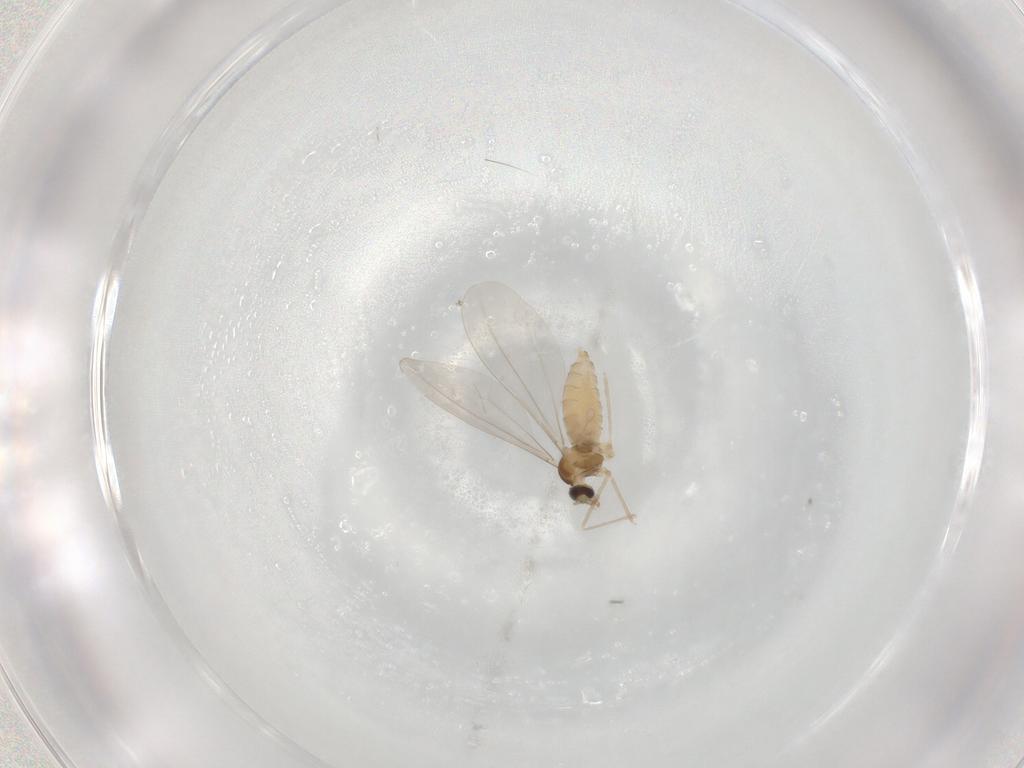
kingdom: Animalia
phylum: Arthropoda
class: Insecta
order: Diptera
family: Cecidomyiidae
